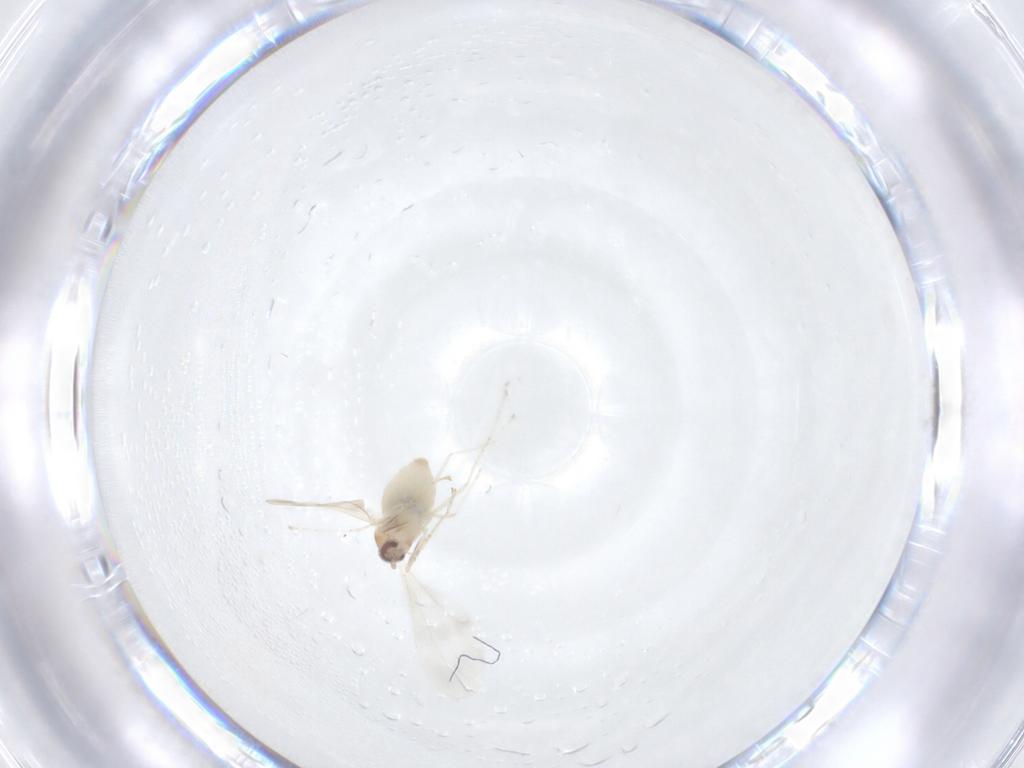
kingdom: Animalia
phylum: Arthropoda
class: Insecta
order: Diptera
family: Cecidomyiidae
